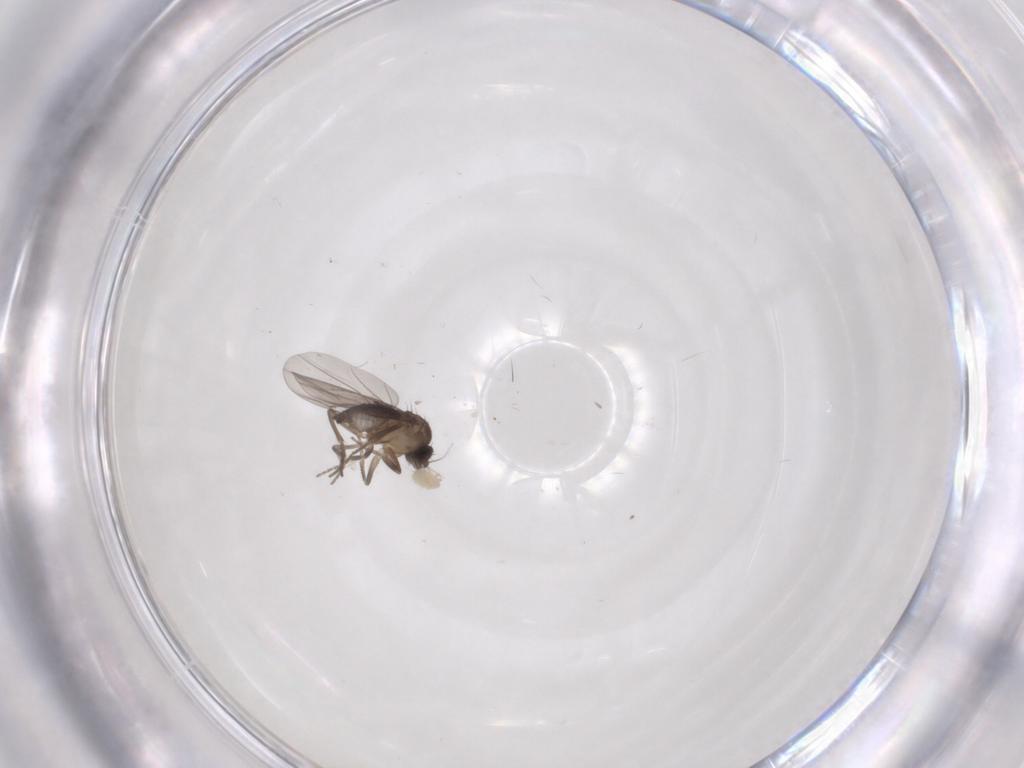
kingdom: Animalia
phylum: Arthropoda
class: Insecta
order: Diptera
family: Phoridae
